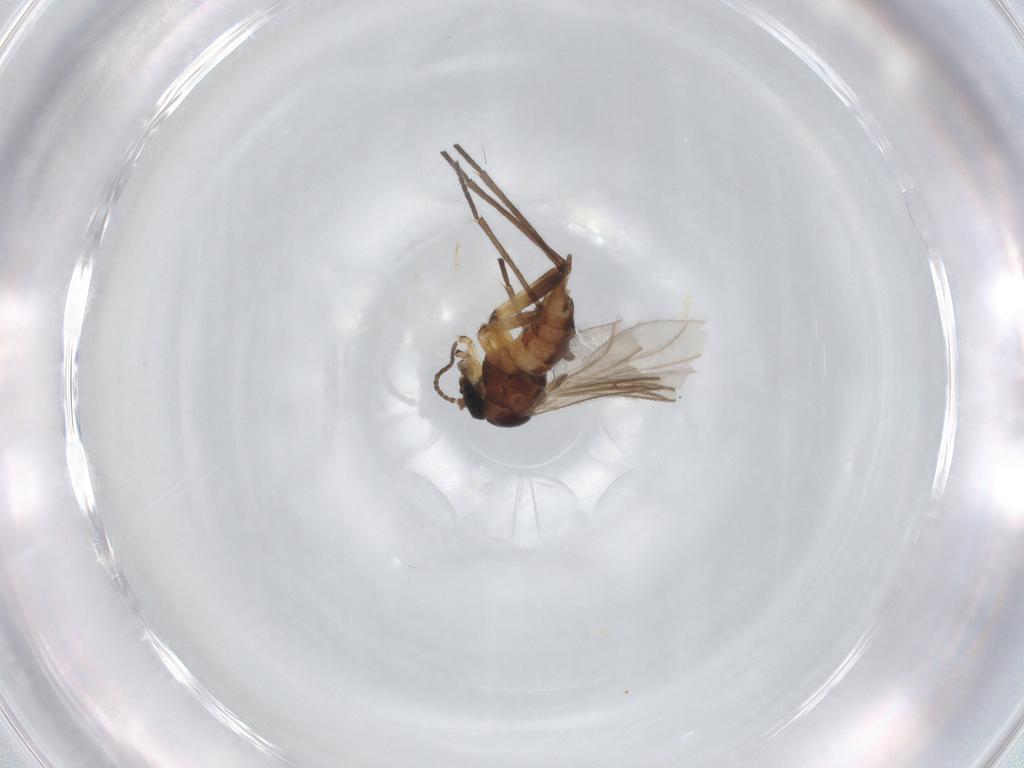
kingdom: Animalia
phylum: Arthropoda
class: Insecta
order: Diptera
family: Sciaridae
